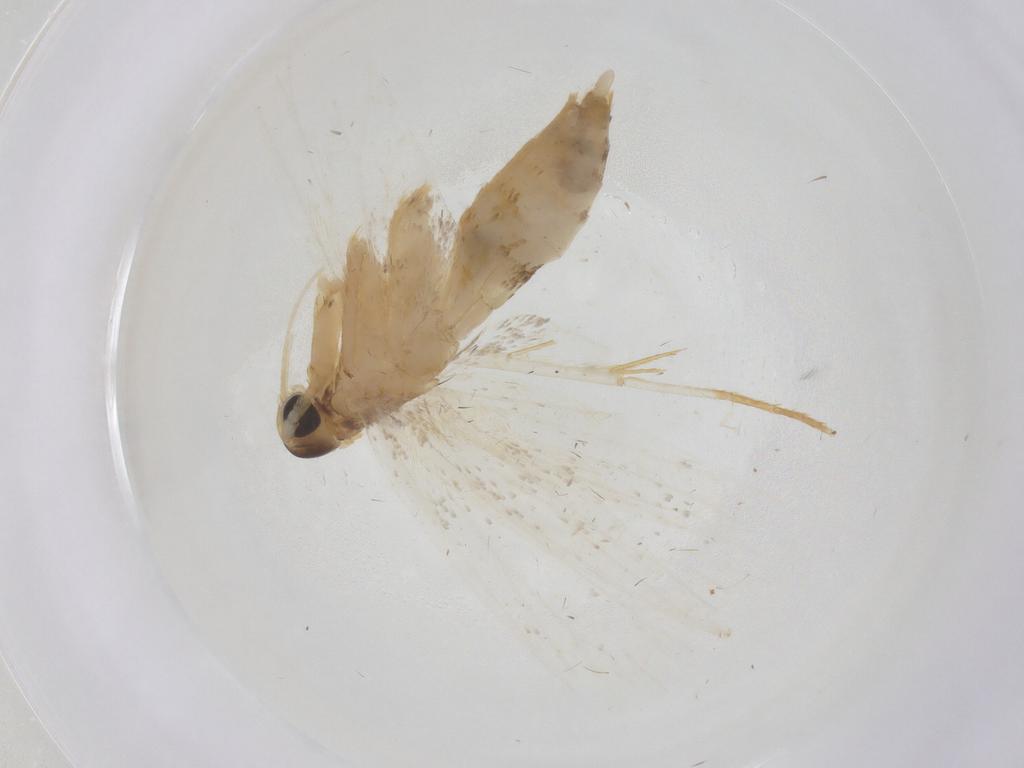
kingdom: Animalia
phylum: Arthropoda
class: Insecta
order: Lepidoptera
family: Lecithoceridae
